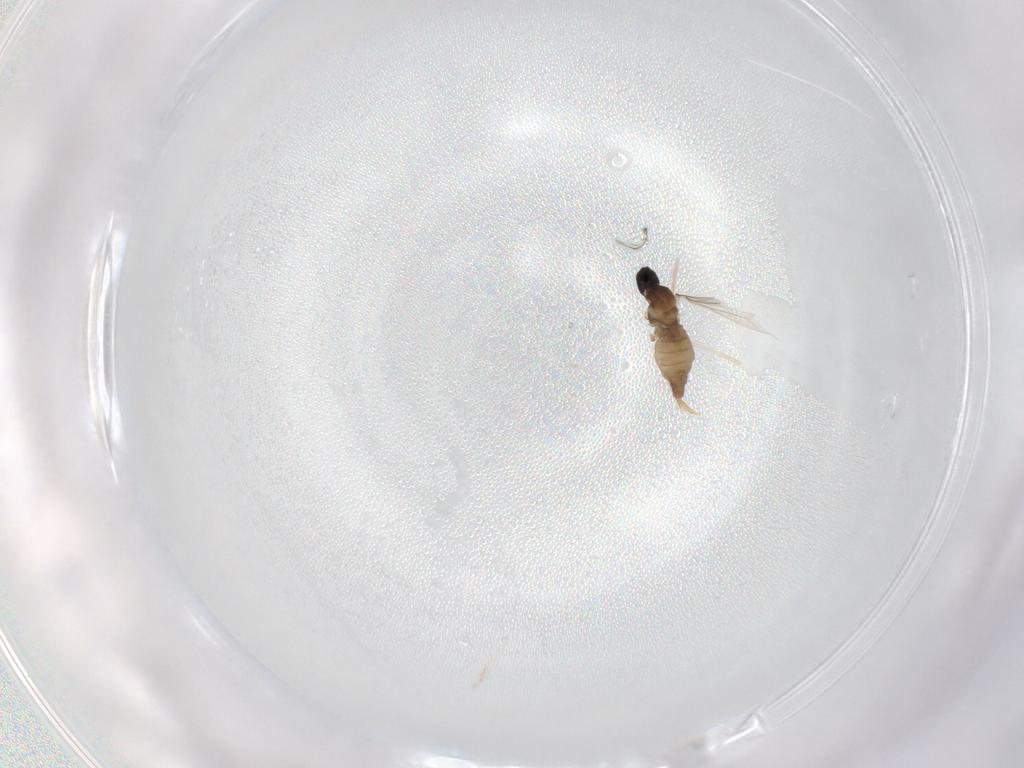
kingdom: Animalia
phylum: Arthropoda
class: Insecta
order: Diptera
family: Cecidomyiidae
